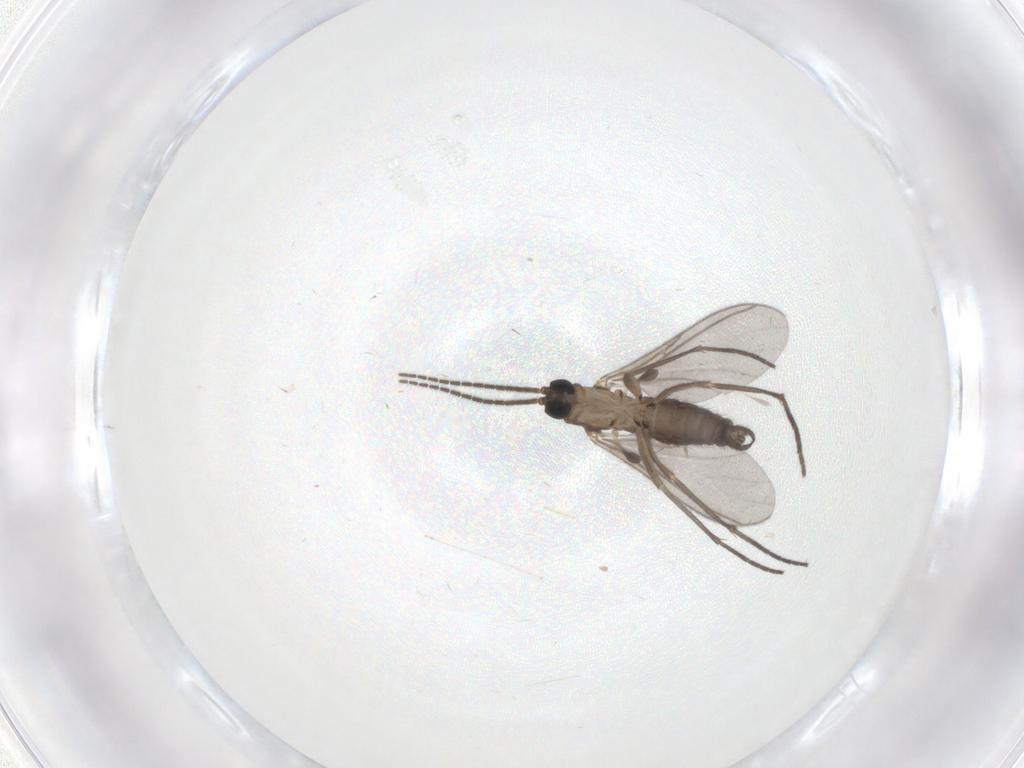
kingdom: Animalia
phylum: Arthropoda
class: Insecta
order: Diptera
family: Sciaridae
